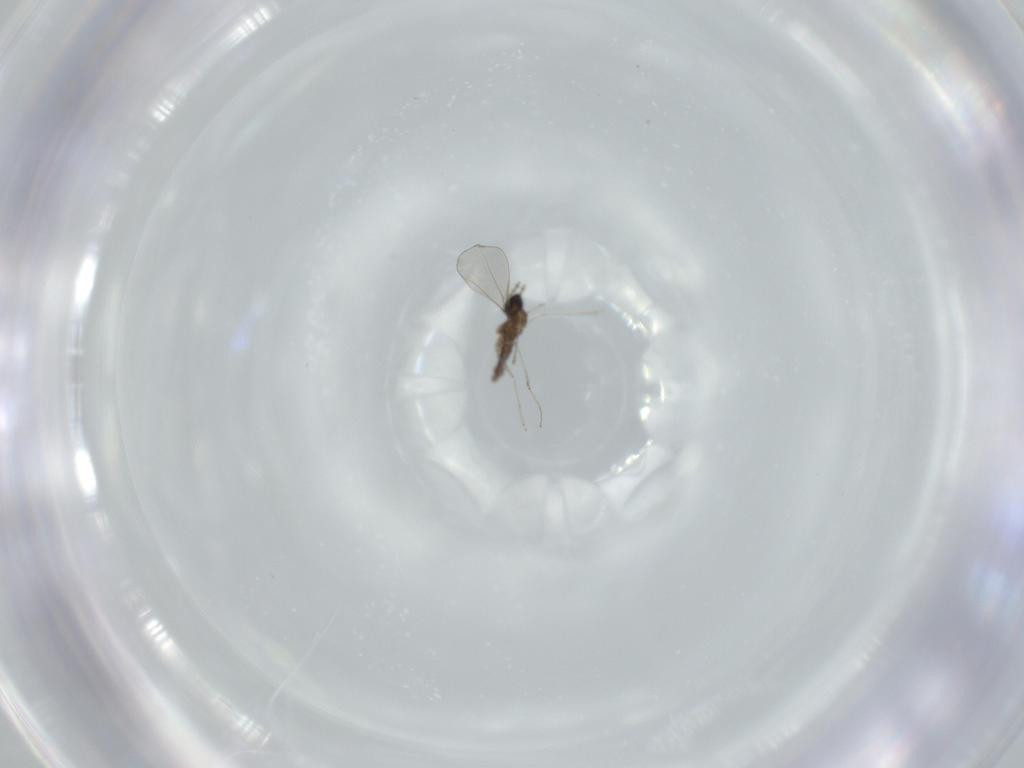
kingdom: Animalia
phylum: Arthropoda
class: Insecta
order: Diptera
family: Cecidomyiidae
